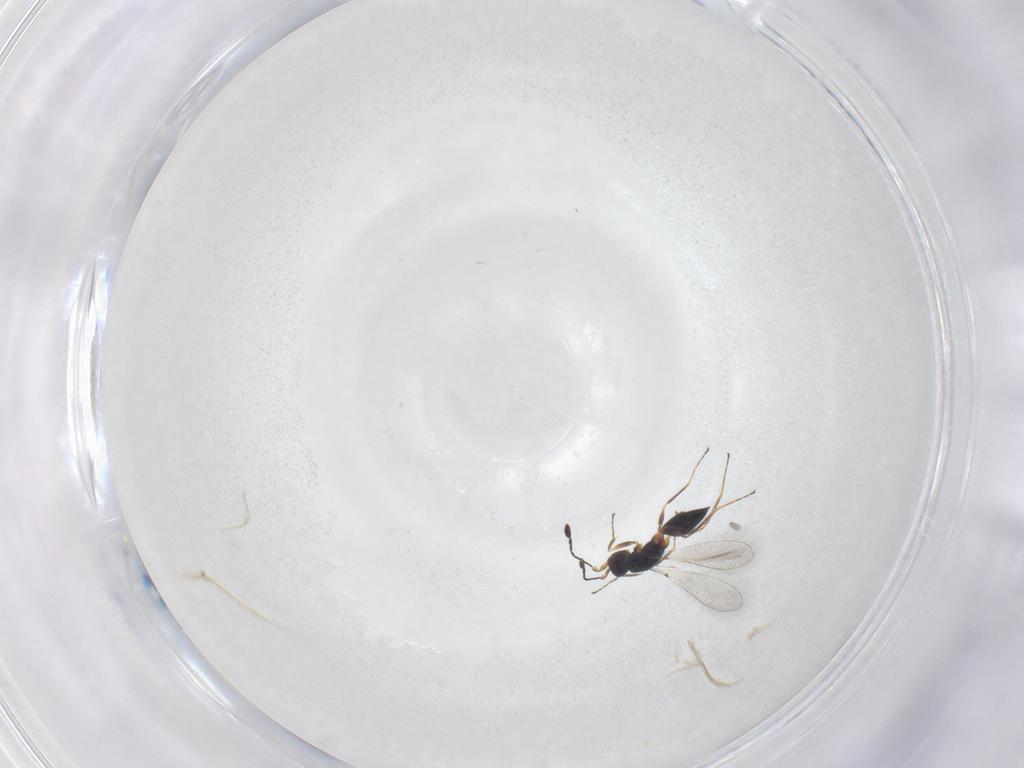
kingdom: Animalia
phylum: Arthropoda
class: Insecta
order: Hymenoptera
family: Mymaridae
